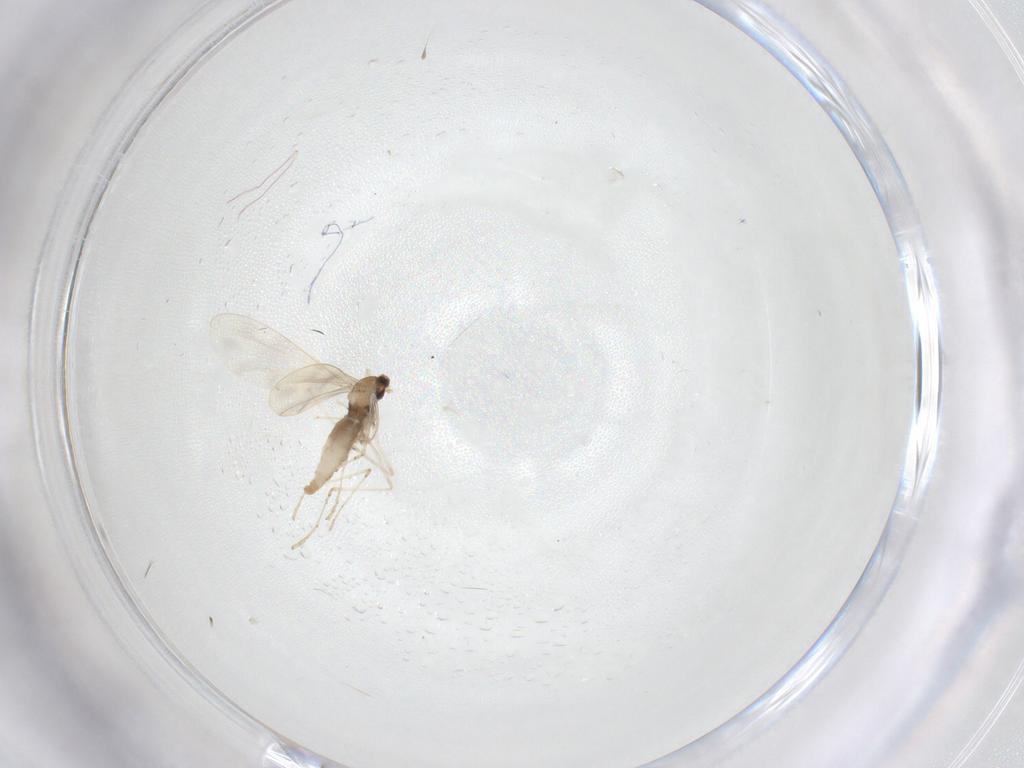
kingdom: Animalia
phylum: Arthropoda
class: Insecta
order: Diptera
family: Cecidomyiidae
